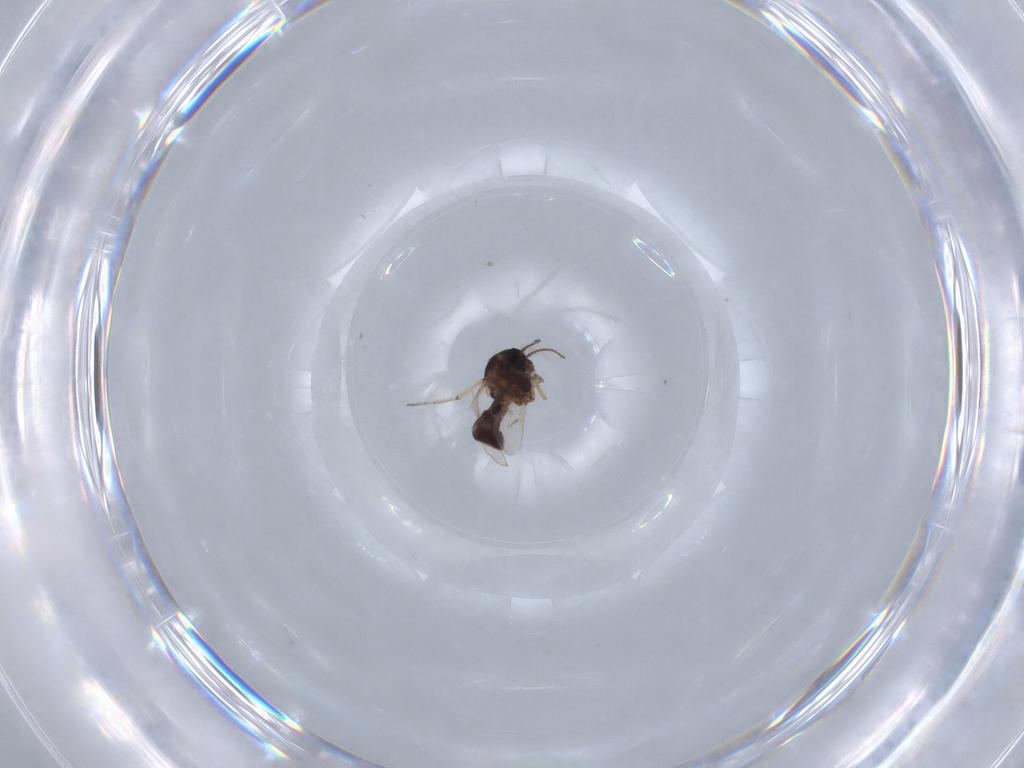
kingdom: Animalia
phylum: Arthropoda
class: Insecta
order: Diptera
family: Ceratopogonidae
